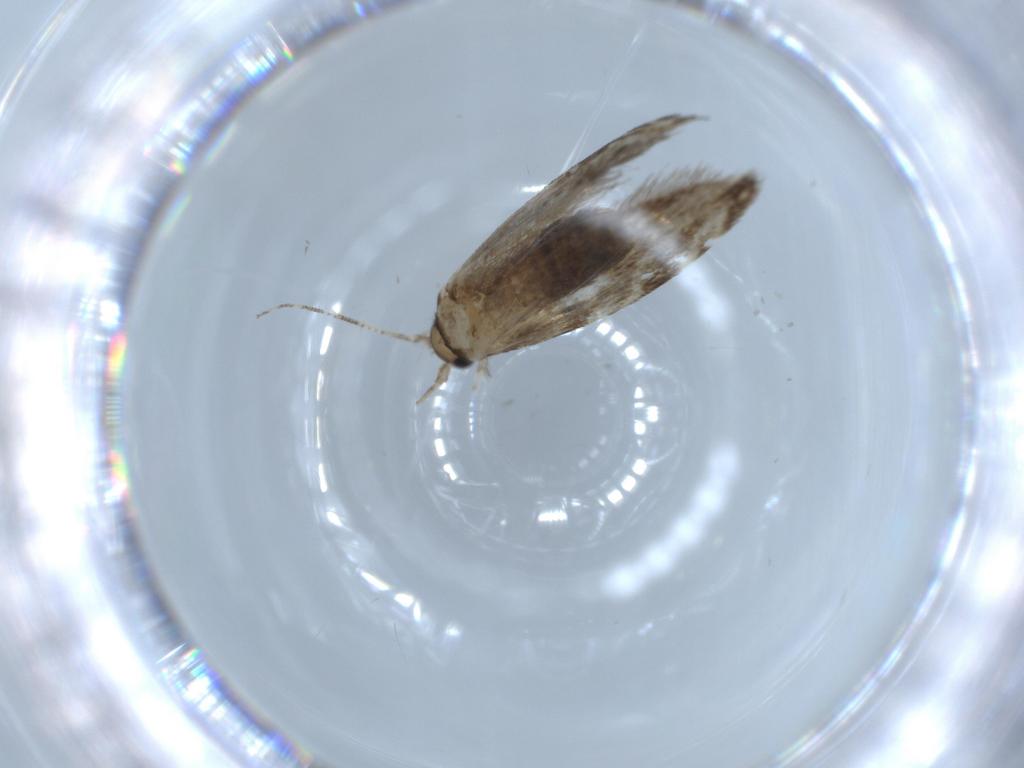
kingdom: Animalia
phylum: Arthropoda
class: Insecta
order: Lepidoptera
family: Tineidae
